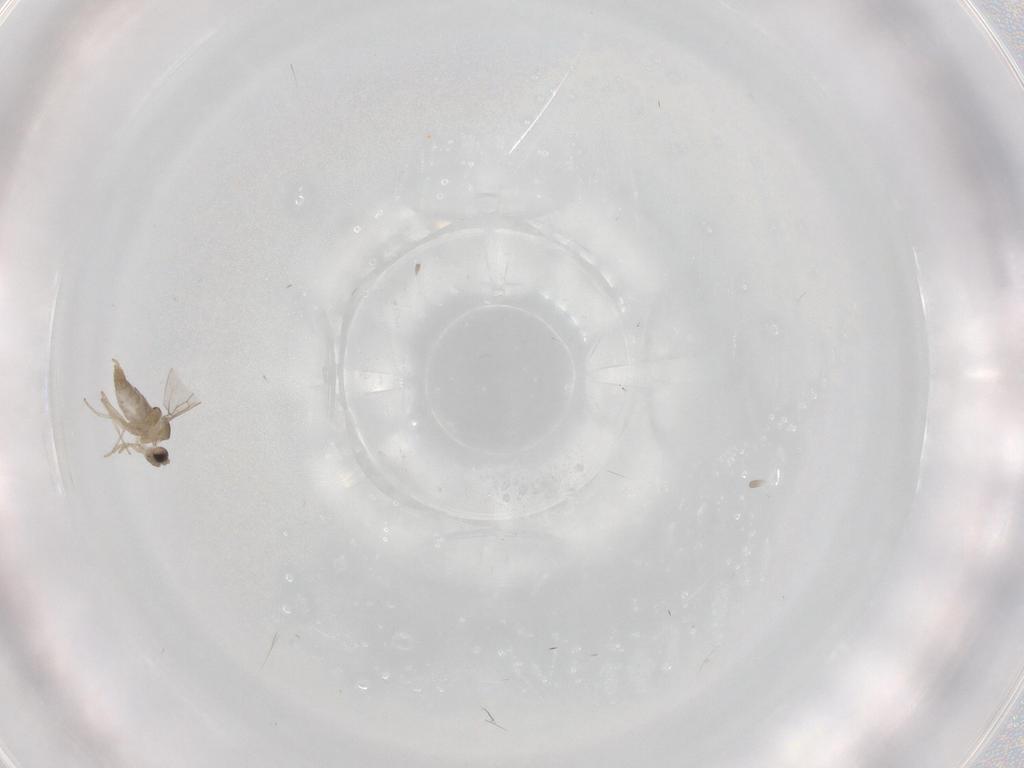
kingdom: Animalia
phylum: Arthropoda
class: Insecta
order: Diptera
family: Cecidomyiidae
